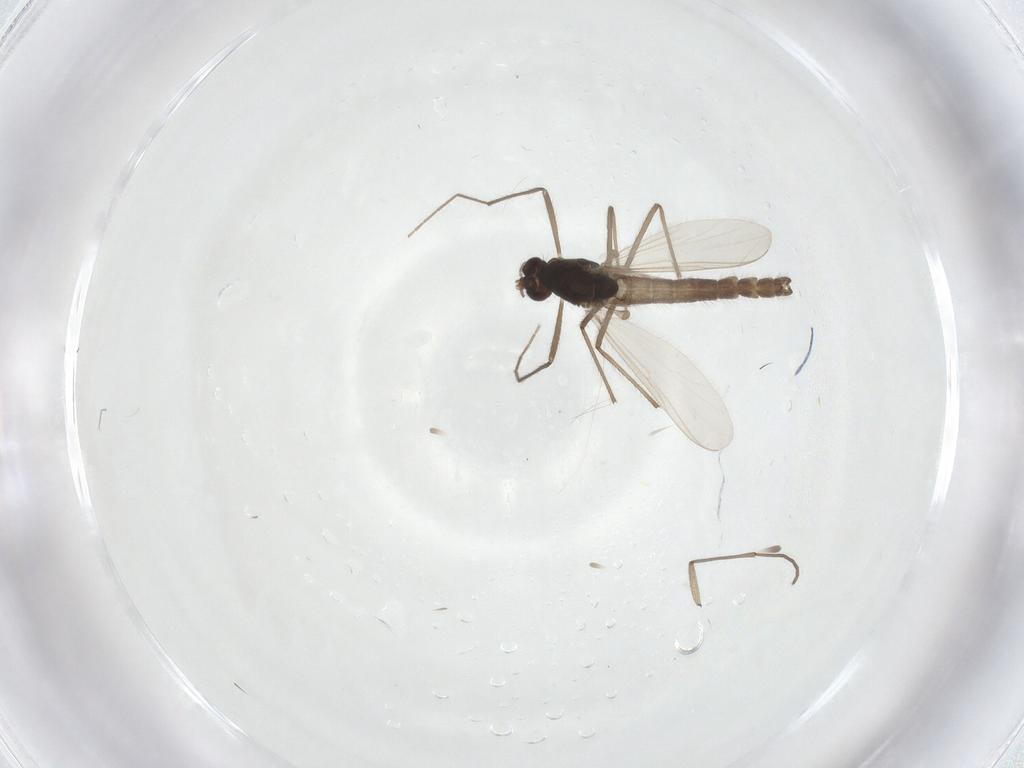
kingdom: Animalia
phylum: Arthropoda
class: Insecta
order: Diptera
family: Chironomidae
